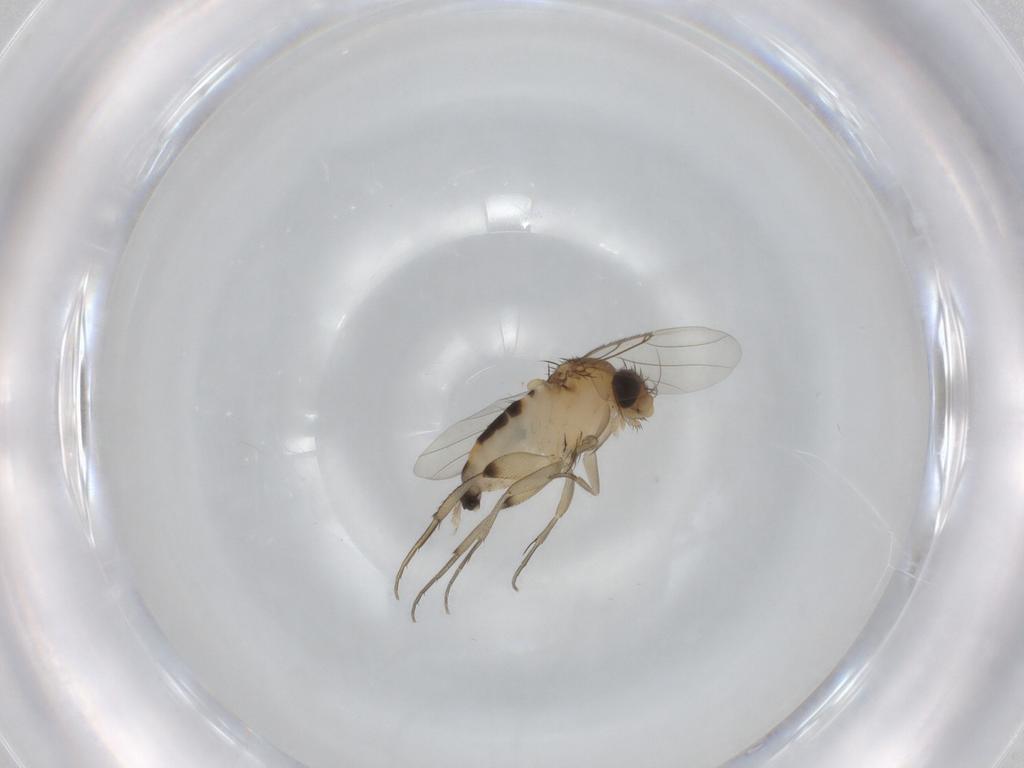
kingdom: Animalia
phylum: Arthropoda
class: Insecta
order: Diptera
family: Phoridae
